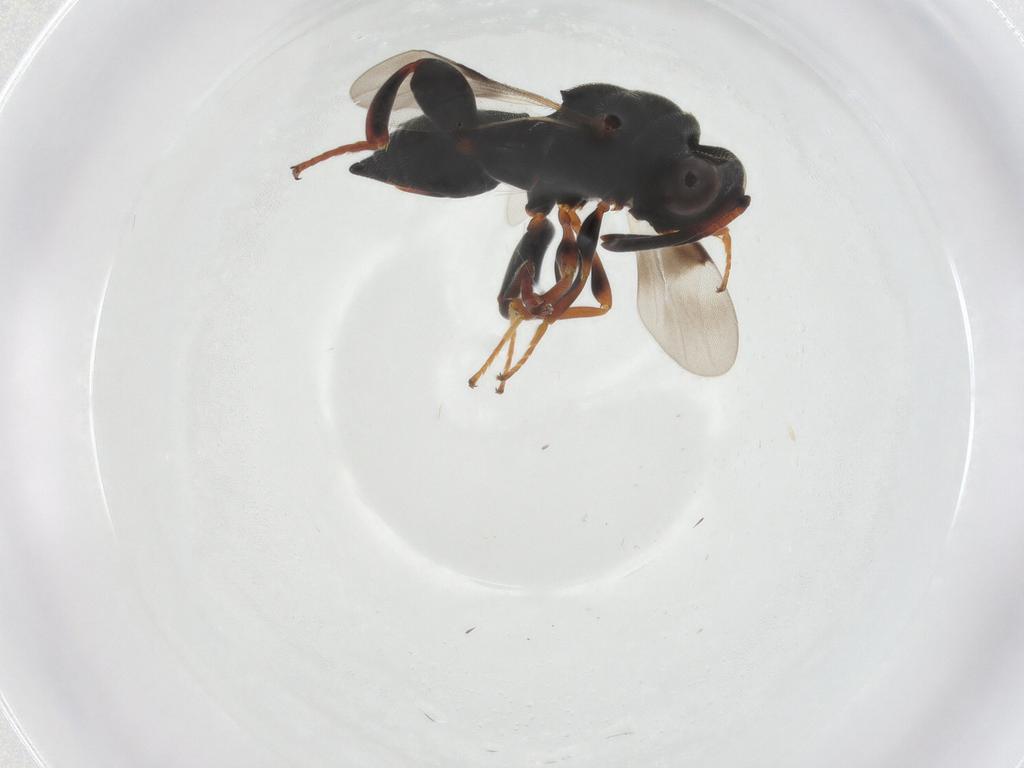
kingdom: Animalia
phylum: Arthropoda
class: Insecta
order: Hymenoptera
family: Chalcididae
